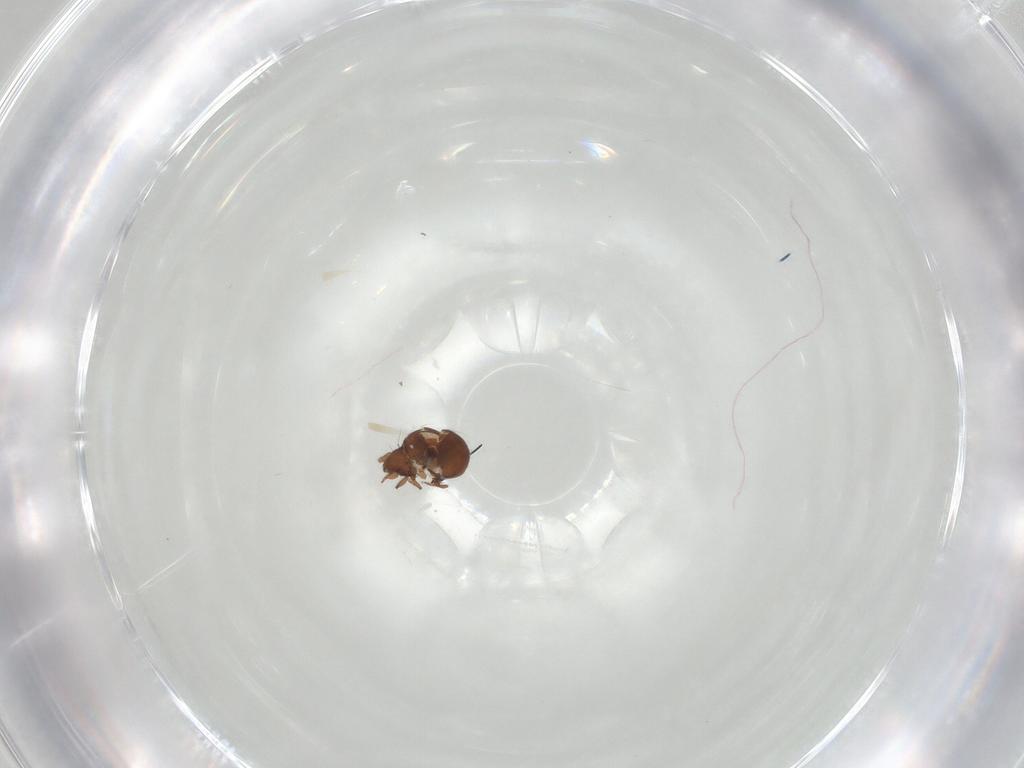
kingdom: Animalia
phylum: Arthropoda
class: Arachnida
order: Sarcoptiformes
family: Oribatulidae
